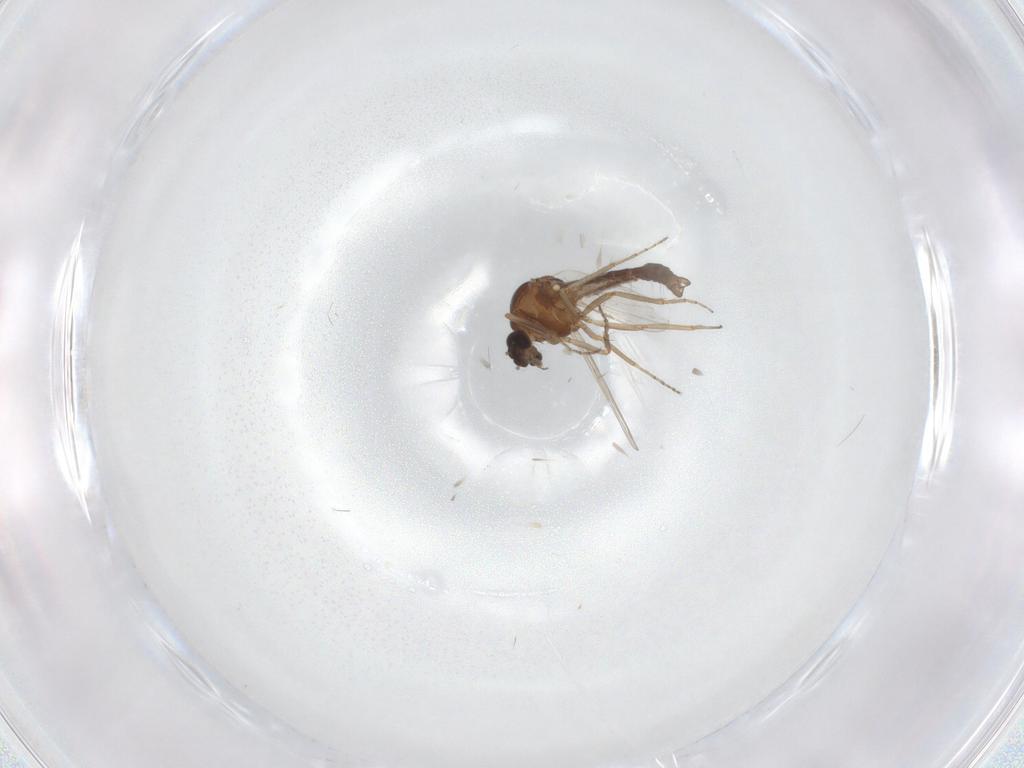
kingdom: Animalia
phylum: Arthropoda
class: Insecta
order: Diptera
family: Ceratopogonidae
